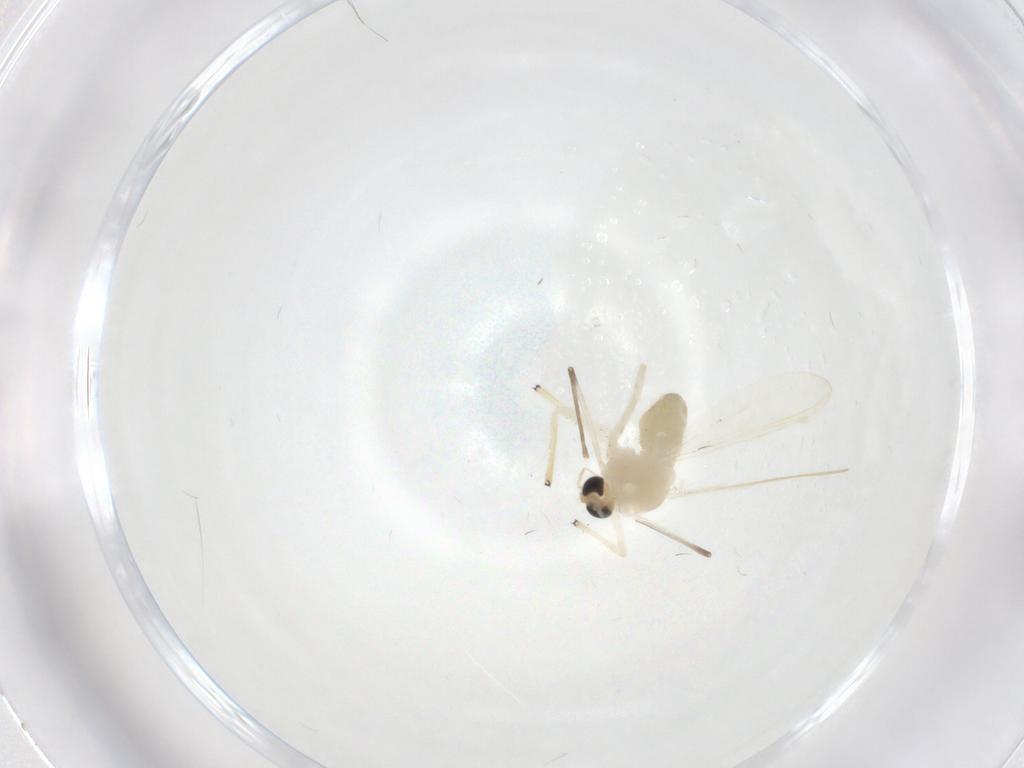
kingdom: Animalia
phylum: Arthropoda
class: Insecta
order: Diptera
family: Chironomidae
